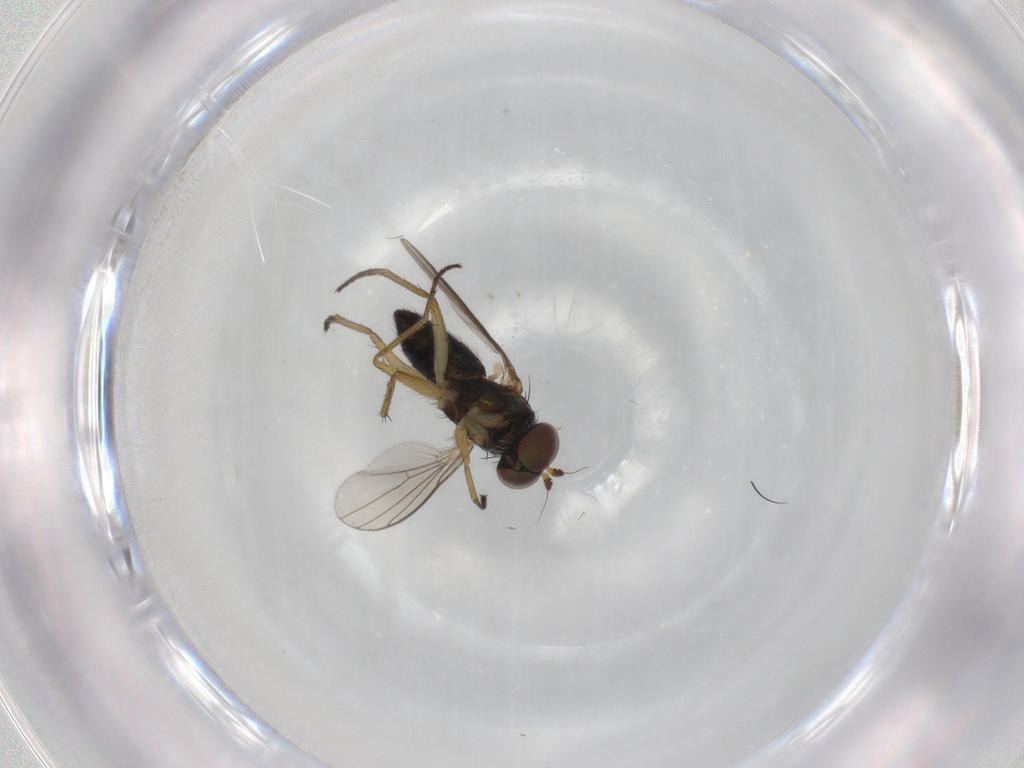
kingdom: Animalia
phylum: Arthropoda
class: Insecta
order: Diptera
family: Dolichopodidae
